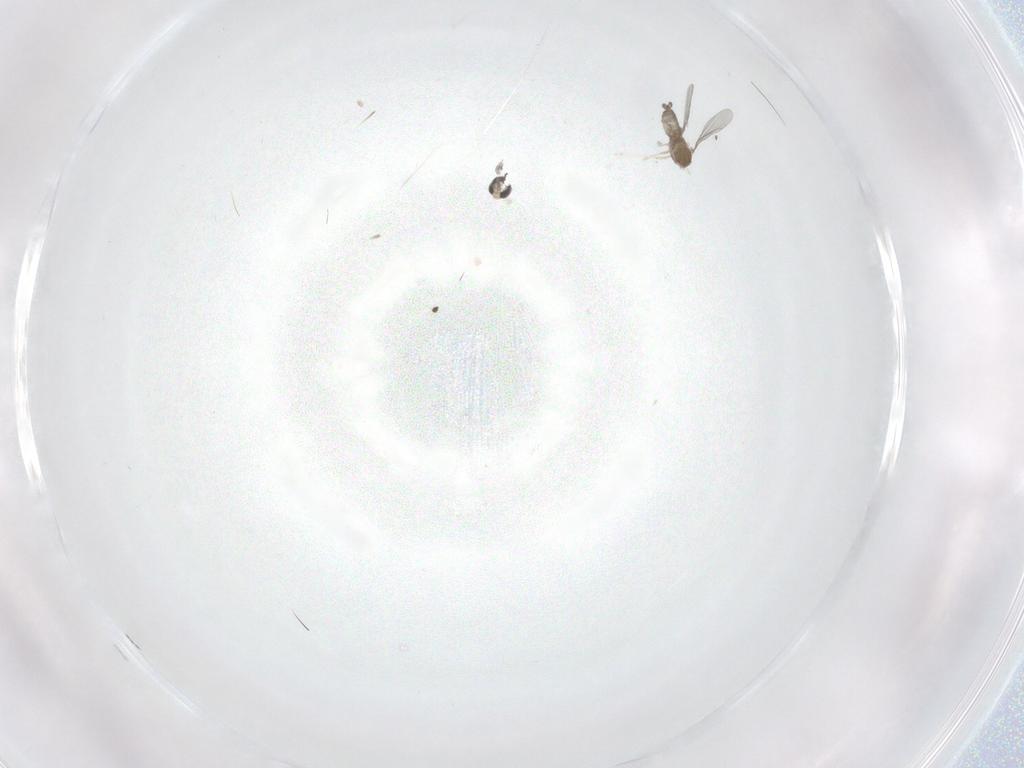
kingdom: Animalia
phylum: Arthropoda
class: Insecta
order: Diptera
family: Cecidomyiidae
